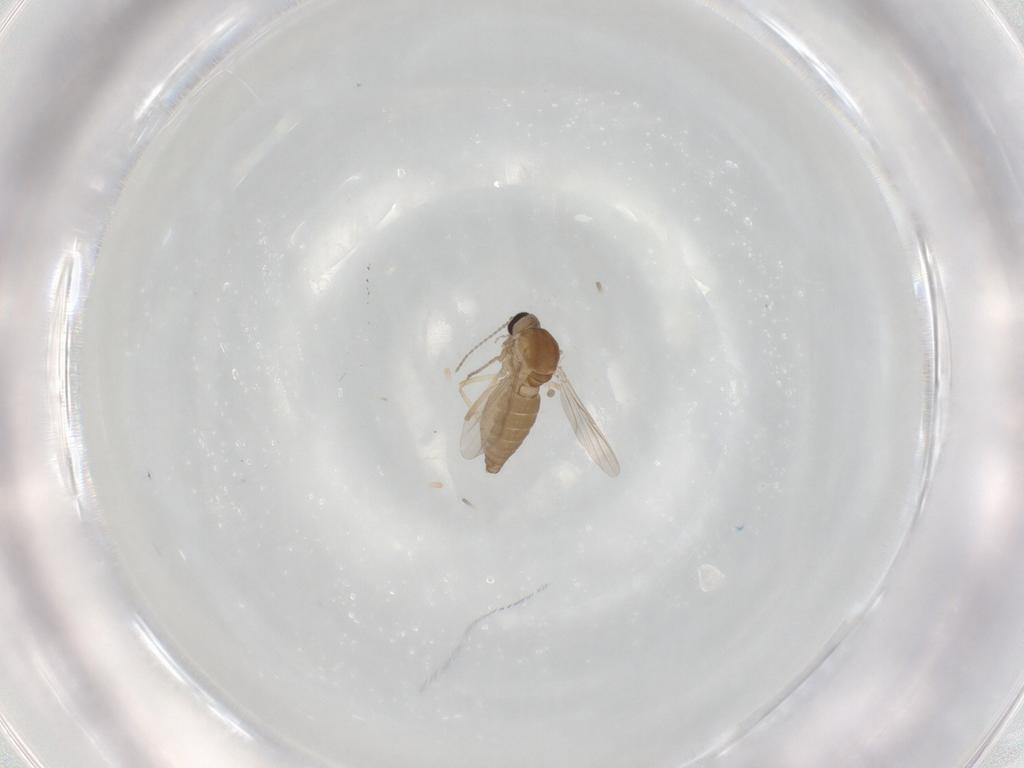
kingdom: Animalia
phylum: Arthropoda
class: Insecta
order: Diptera
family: Ceratopogonidae
